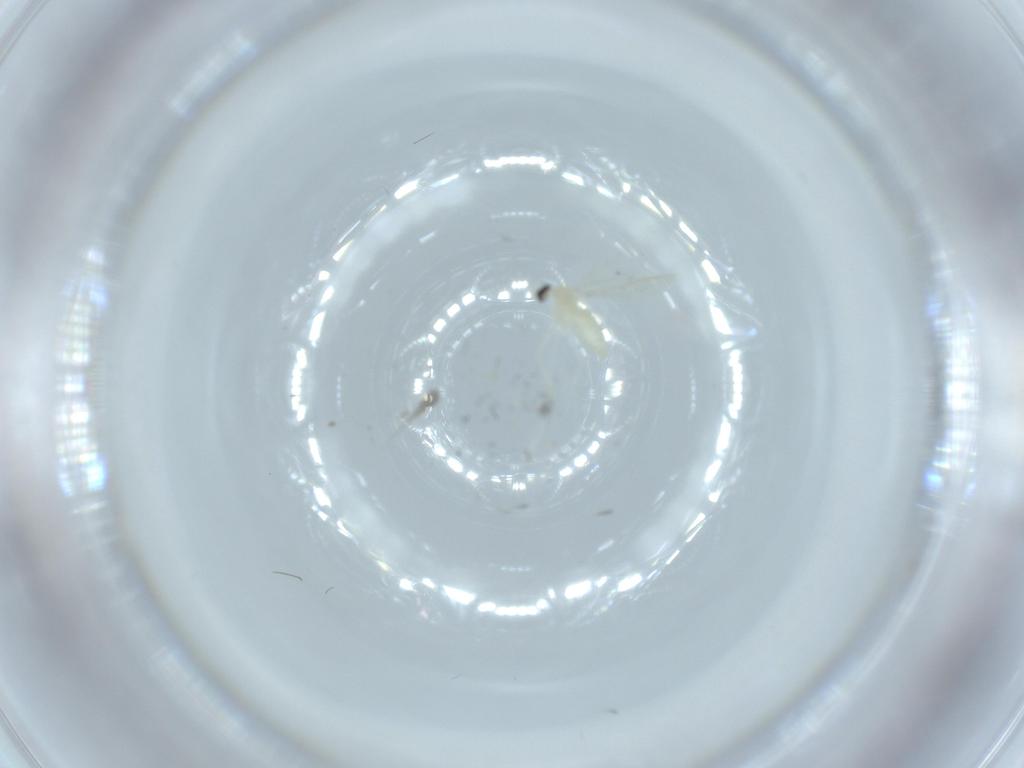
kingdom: Animalia
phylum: Arthropoda
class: Insecta
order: Diptera
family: Cecidomyiidae
